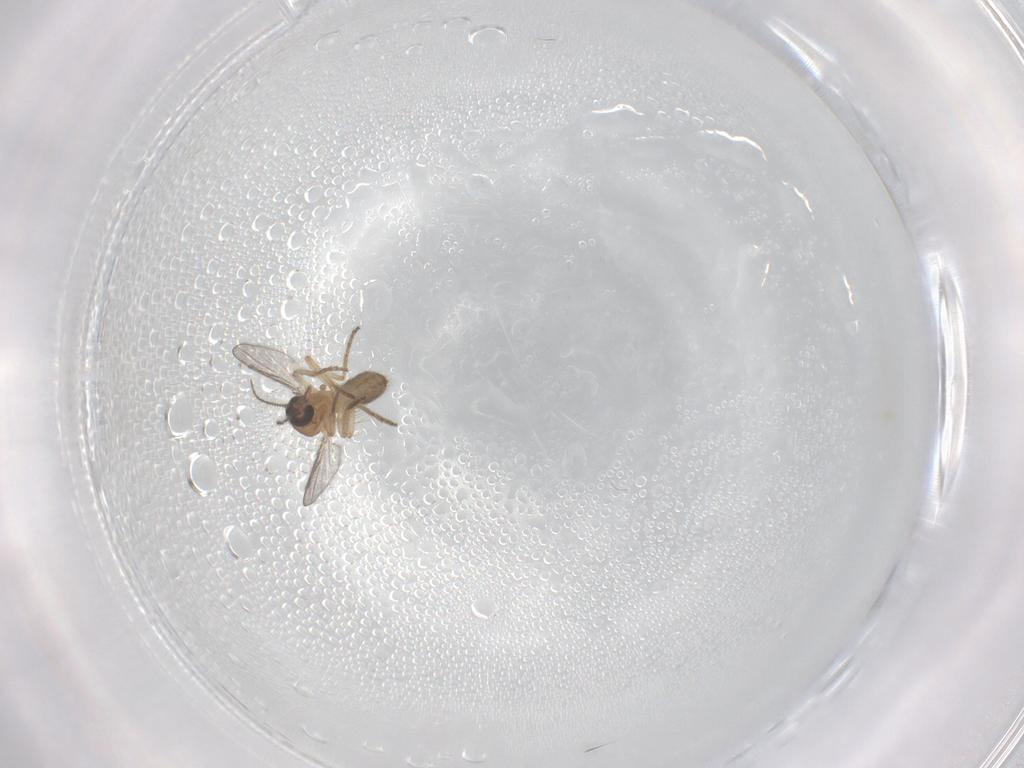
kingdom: Animalia
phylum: Arthropoda
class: Insecta
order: Diptera
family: Ceratopogonidae
